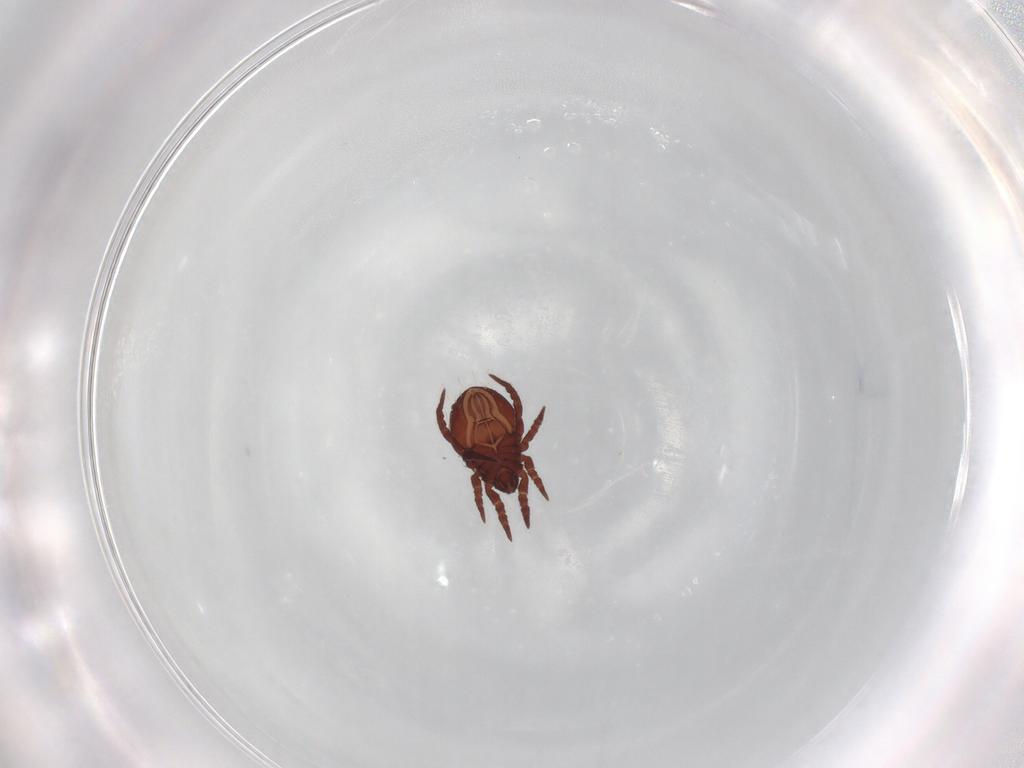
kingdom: Animalia
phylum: Arthropoda
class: Arachnida
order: Sarcoptiformes
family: Nothridae
